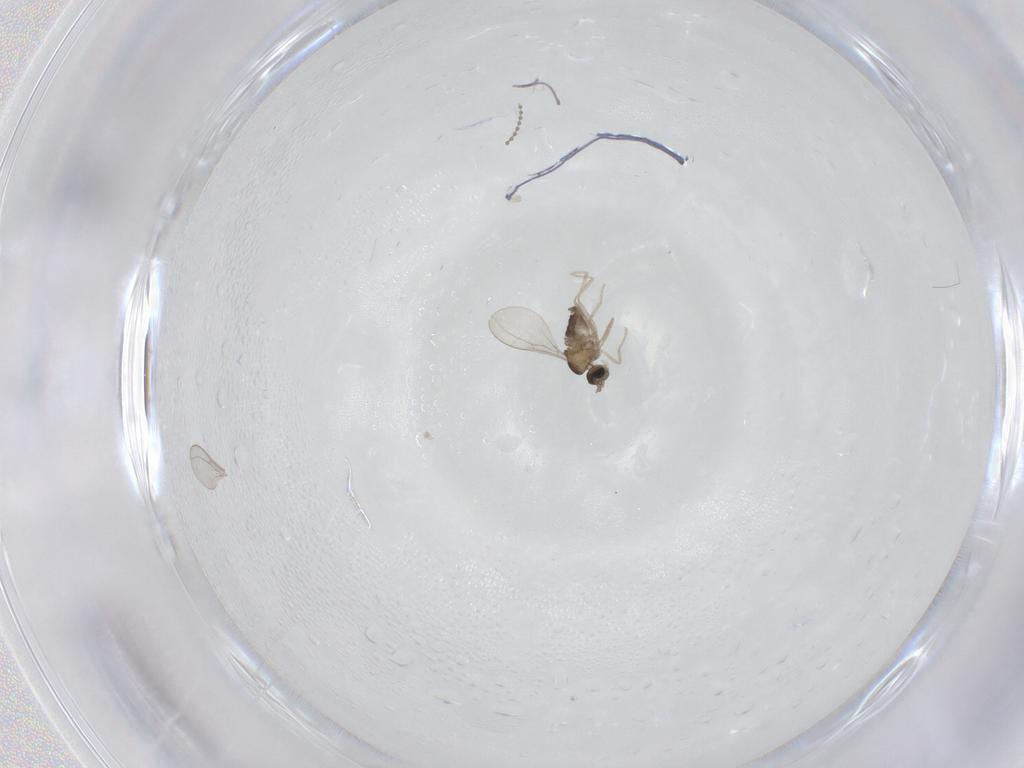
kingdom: Animalia
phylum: Arthropoda
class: Insecta
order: Diptera
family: Cecidomyiidae
